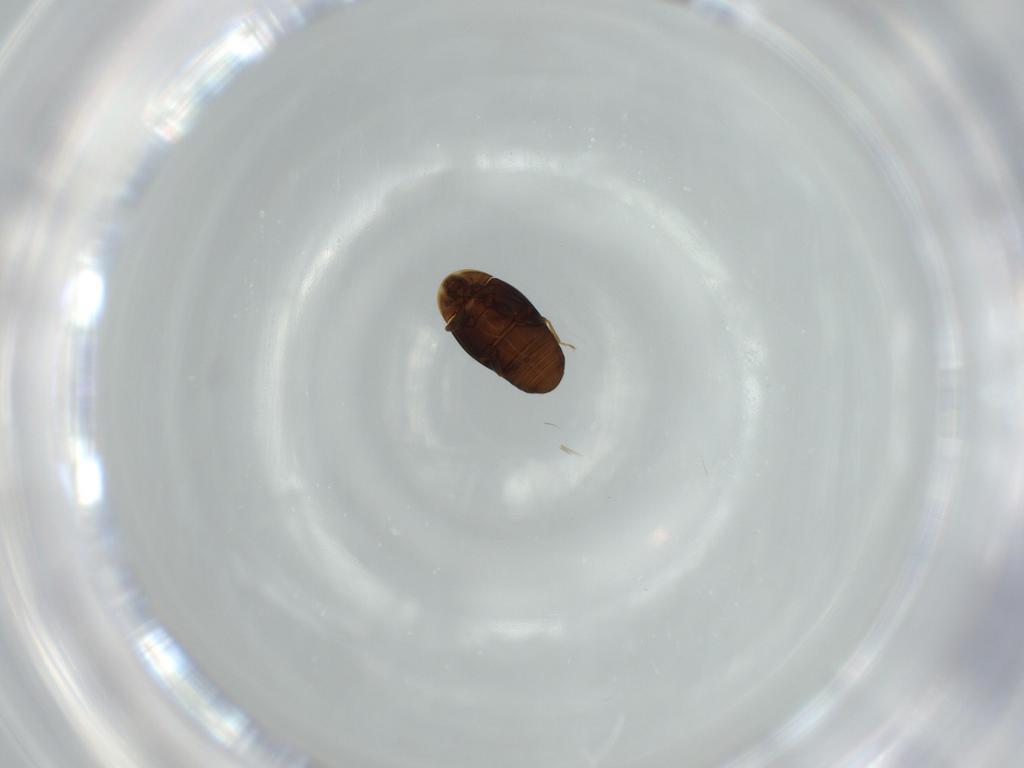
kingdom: Animalia
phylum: Arthropoda
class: Insecta
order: Coleoptera
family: Corylophidae
